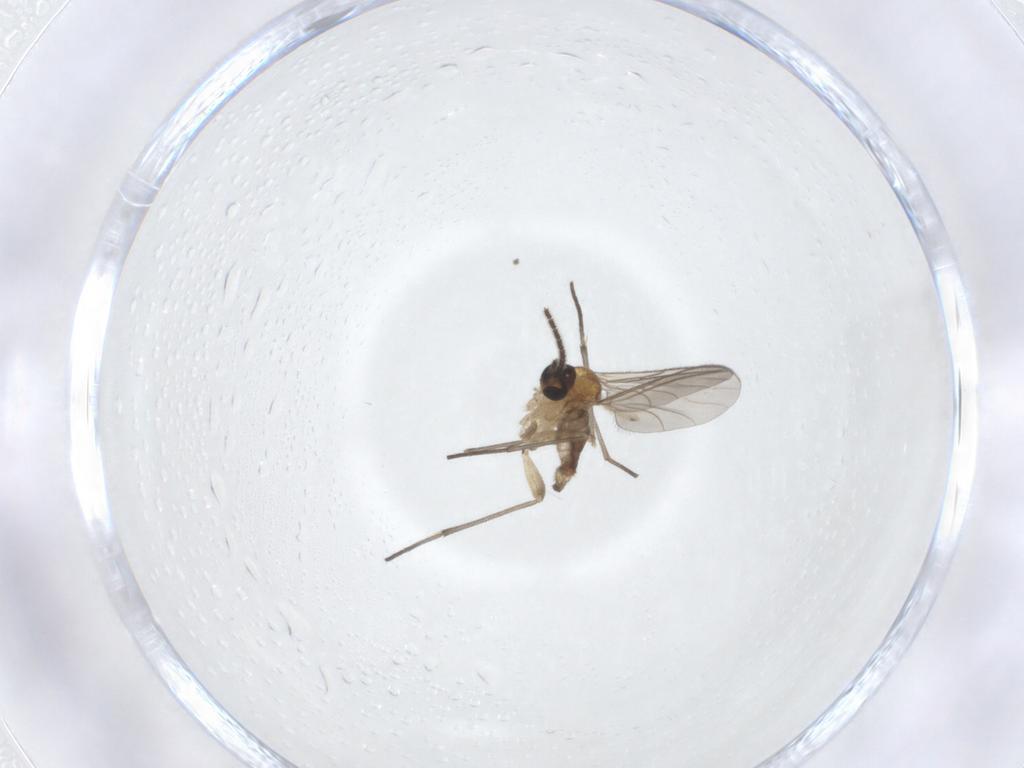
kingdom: Animalia
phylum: Arthropoda
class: Insecta
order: Diptera
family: Sciaridae
